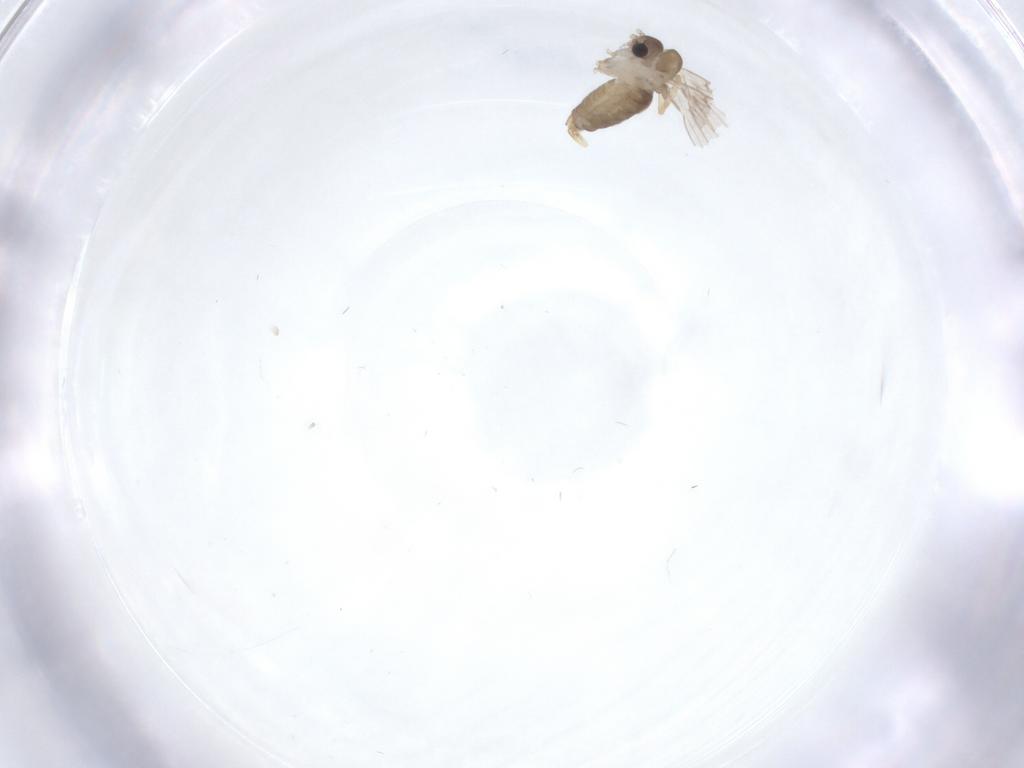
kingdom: Animalia
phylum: Arthropoda
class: Insecta
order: Diptera
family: Ceratopogonidae
